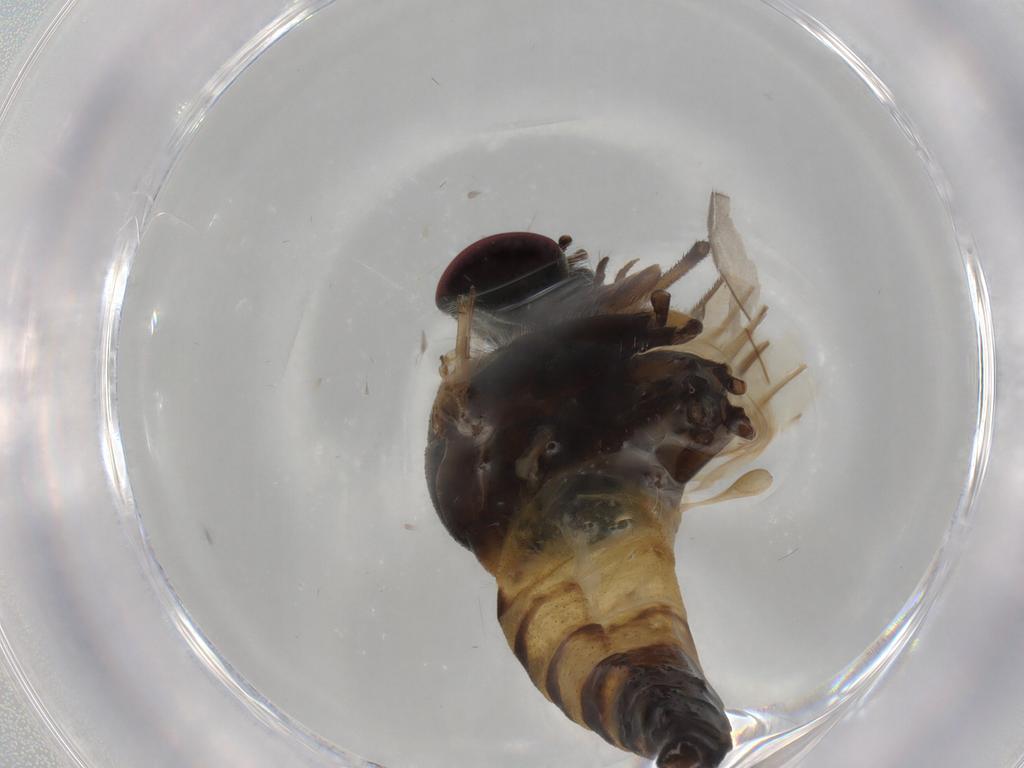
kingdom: Animalia
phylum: Arthropoda
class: Insecta
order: Diptera
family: Rhagionidae
